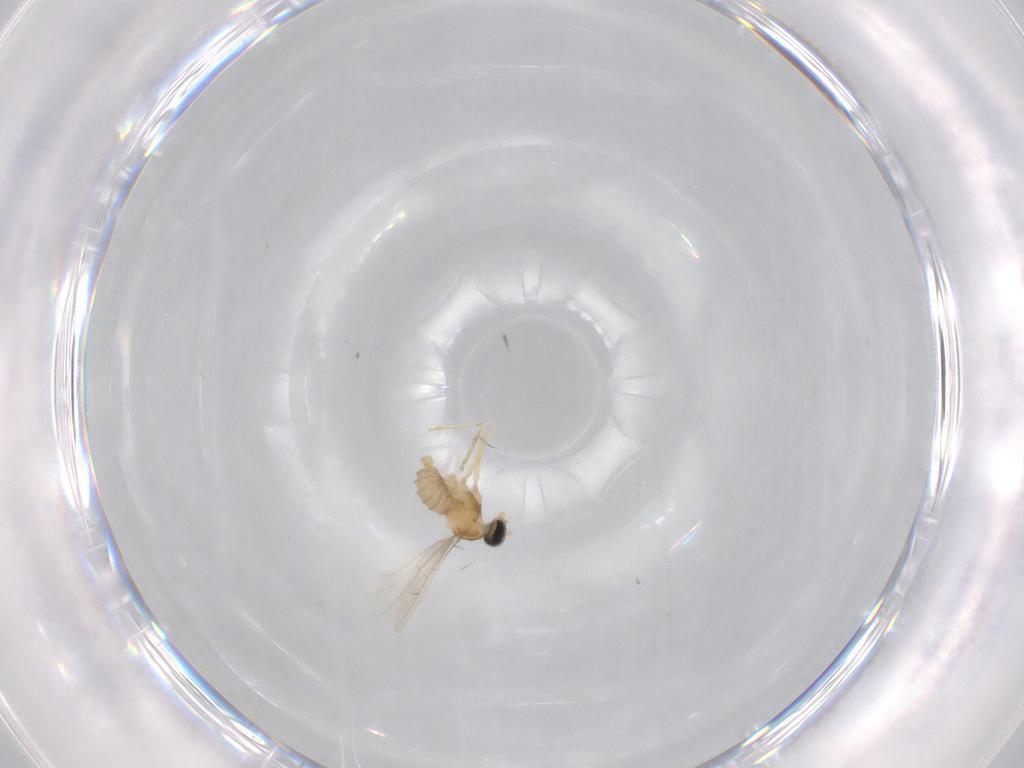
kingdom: Animalia
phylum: Arthropoda
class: Insecta
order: Diptera
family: Cecidomyiidae
